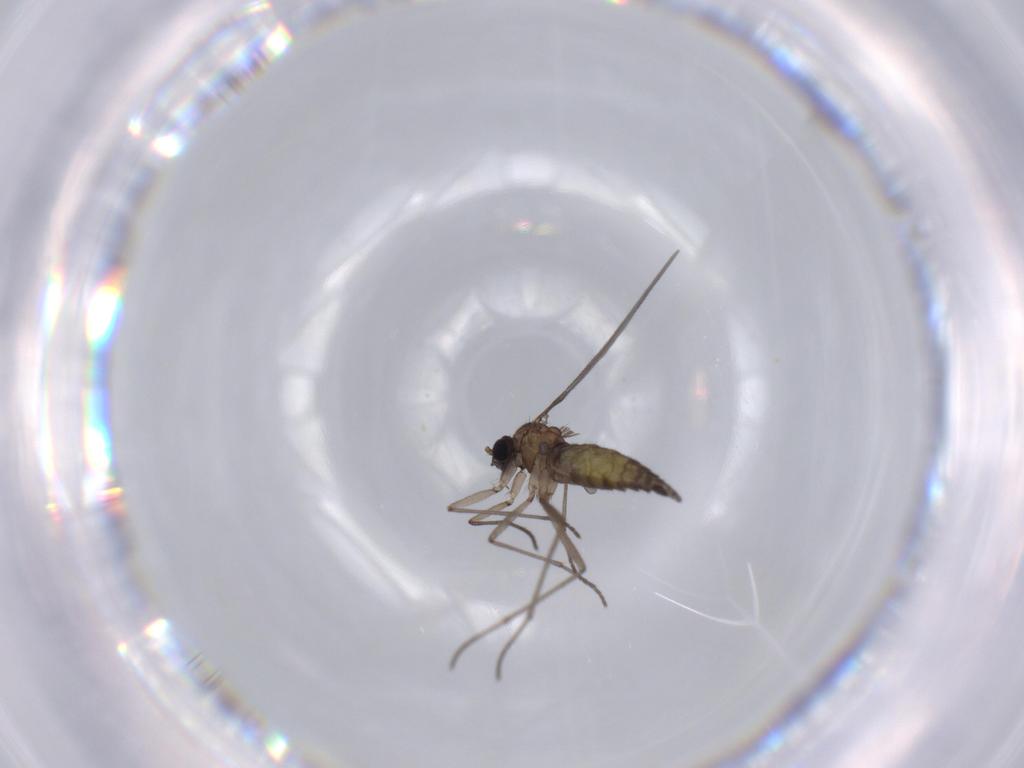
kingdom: Animalia
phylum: Arthropoda
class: Insecta
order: Diptera
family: Sciaridae
